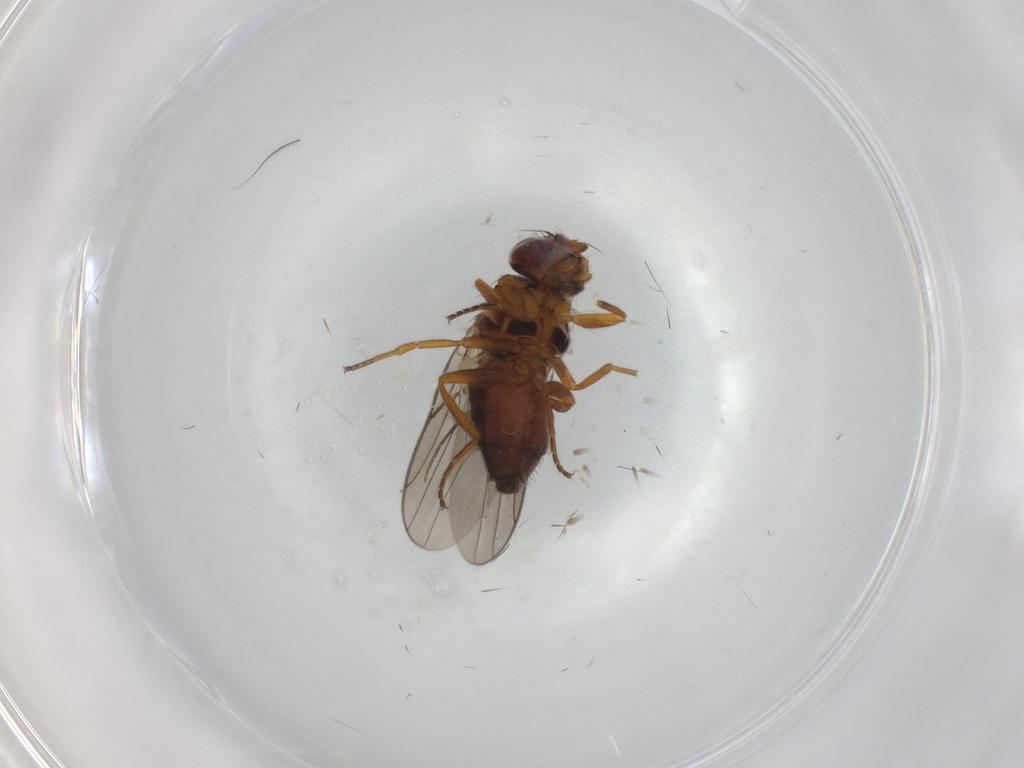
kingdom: Animalia
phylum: Arthropoda
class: Insecta
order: Diptera
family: Chloropidae
